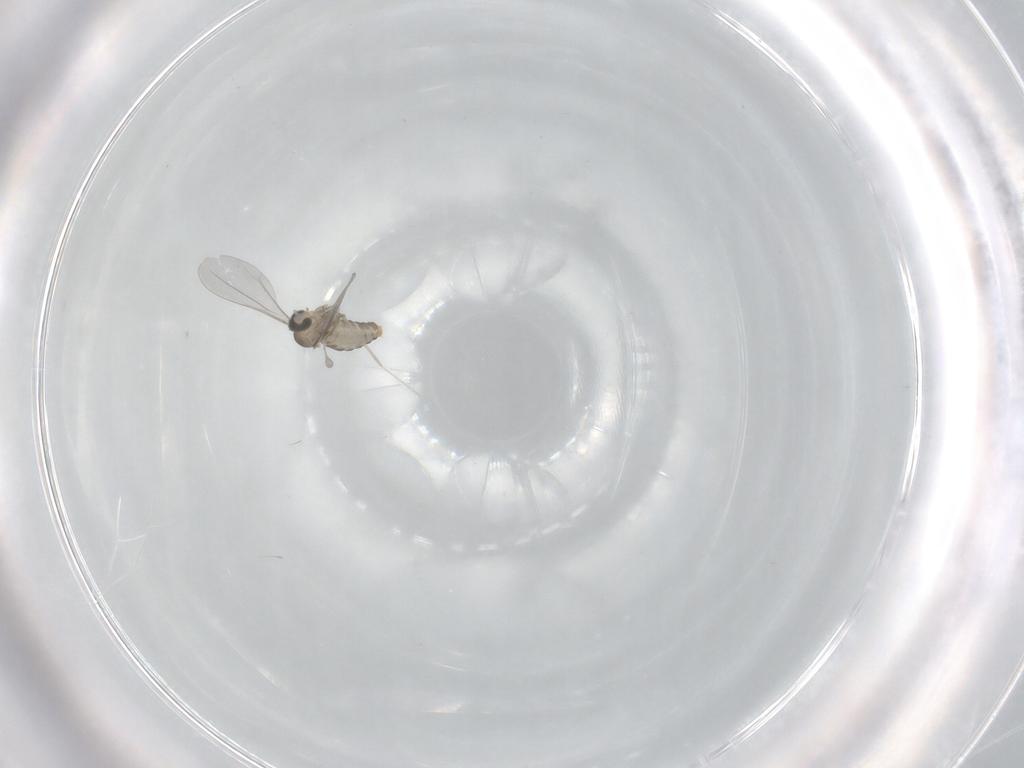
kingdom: Animalia
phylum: Arthropoda
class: Insecta
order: Diptera
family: Cecidomyiidae
